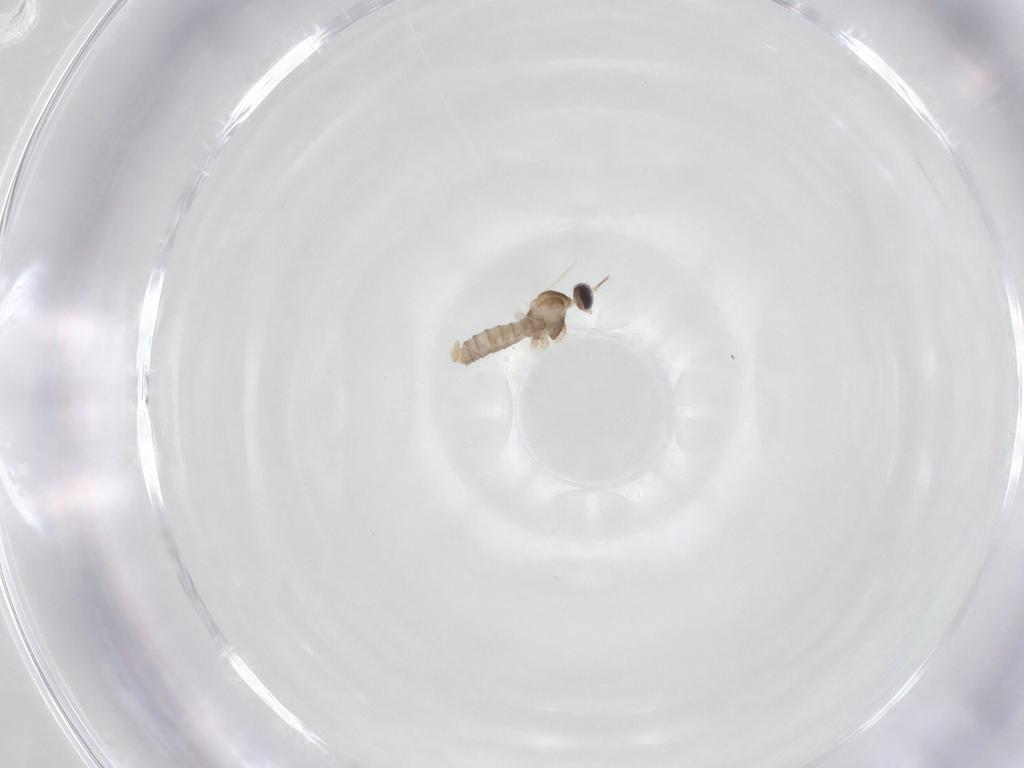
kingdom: Animalia
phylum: Arthropoda
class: Insecta
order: Diptera
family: Cecidomyiidae
